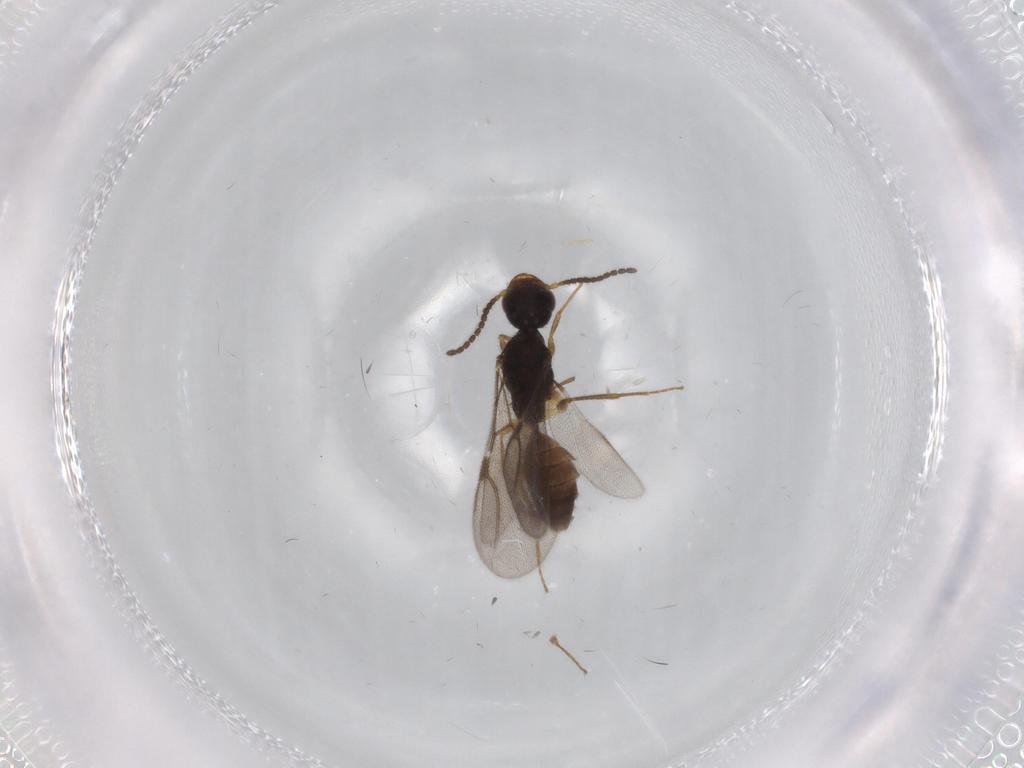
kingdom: Animalia
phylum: Arthropoda
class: Insecta
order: Hymenoptera
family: Bethylidae
